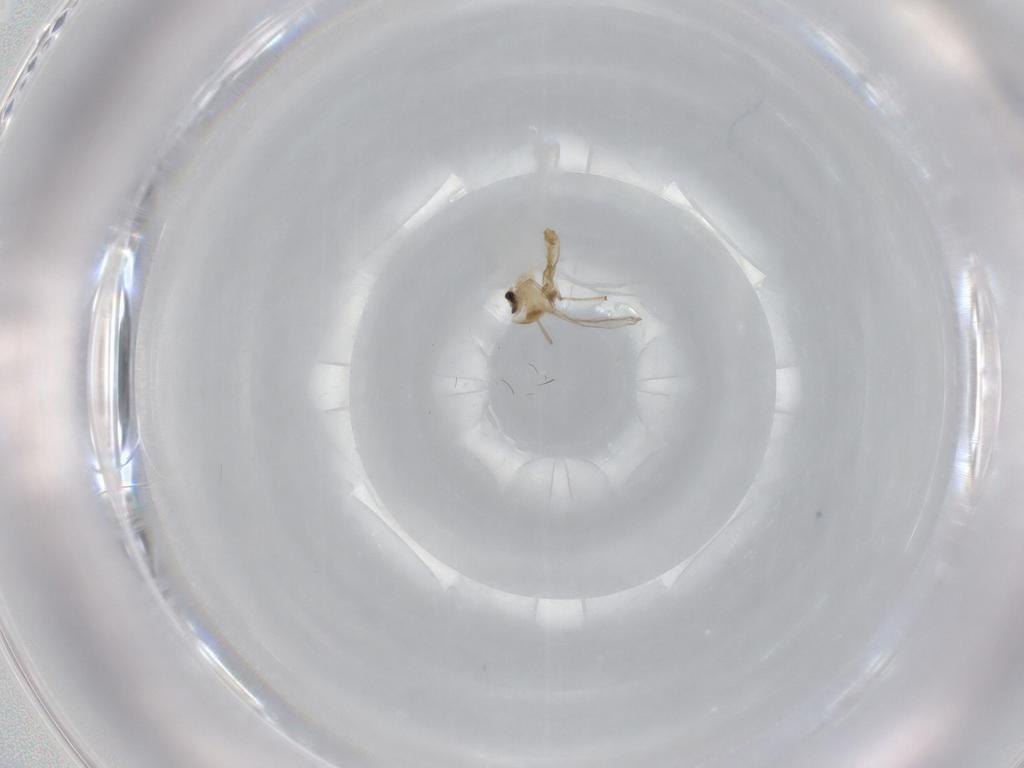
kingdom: Animalia
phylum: Arthropoda
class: Insecta
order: Diptera
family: Chironomidae
